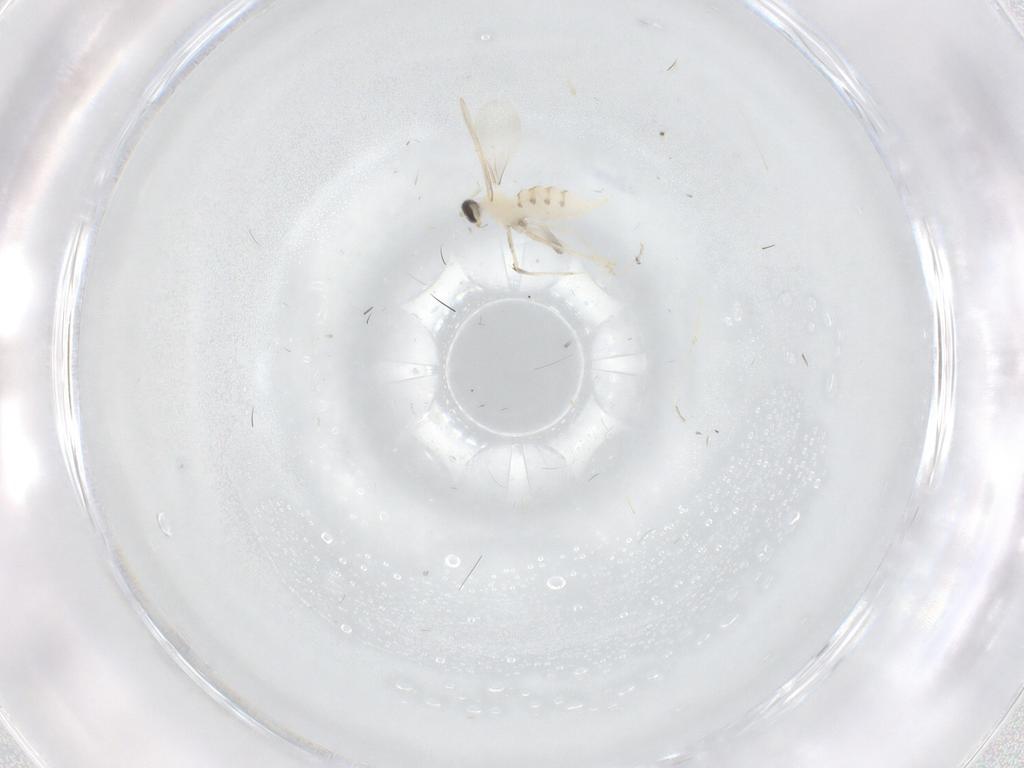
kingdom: Animalia
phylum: Arthropoda
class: Insecta
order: Diptera
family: Cecidomyiidae
